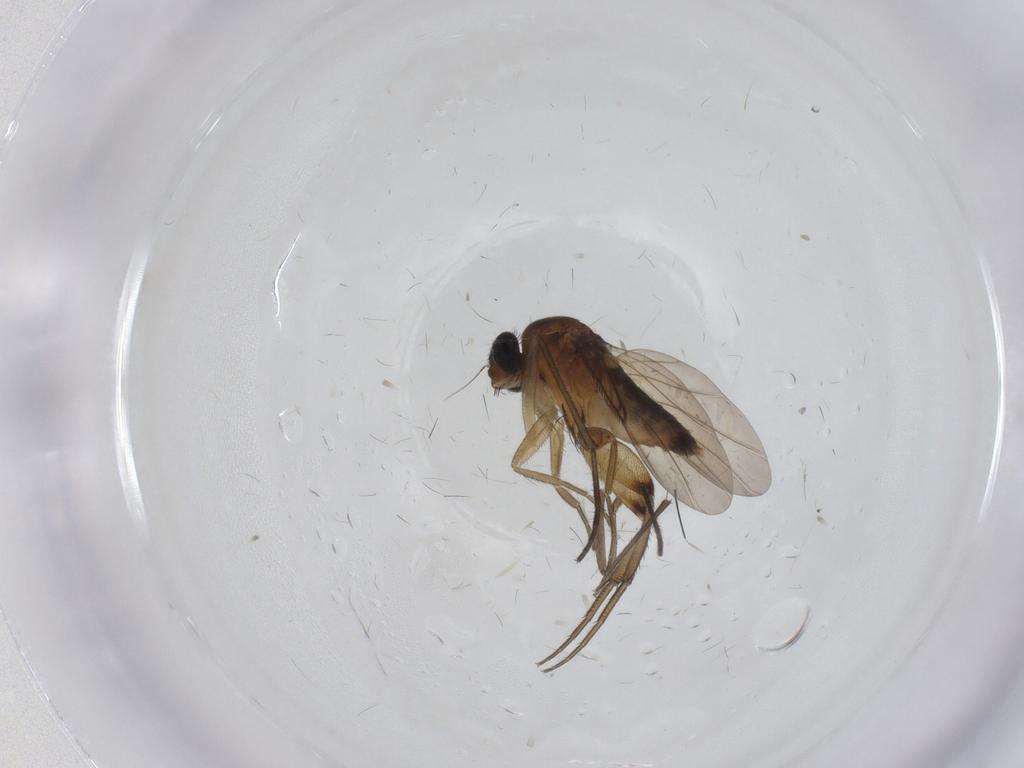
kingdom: Animalia
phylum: Arthropoda
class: Insecta
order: Diptera
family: Phoridae
